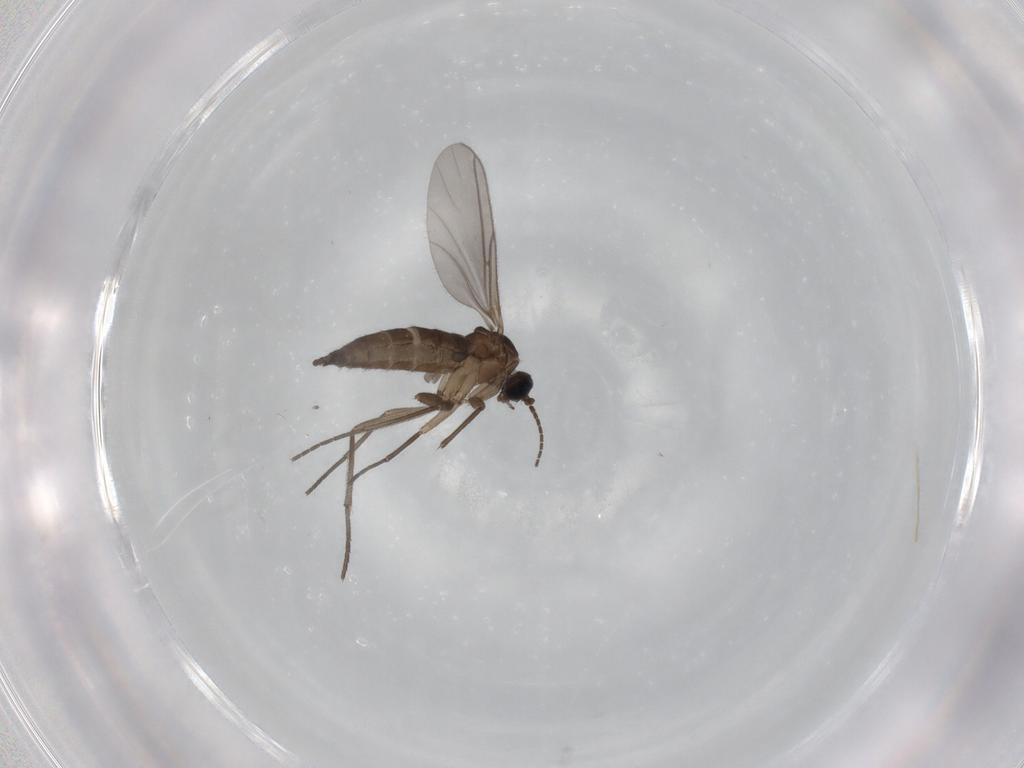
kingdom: Animalia
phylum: Arthropoda
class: Insecta
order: Diptera
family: Sciaridae
